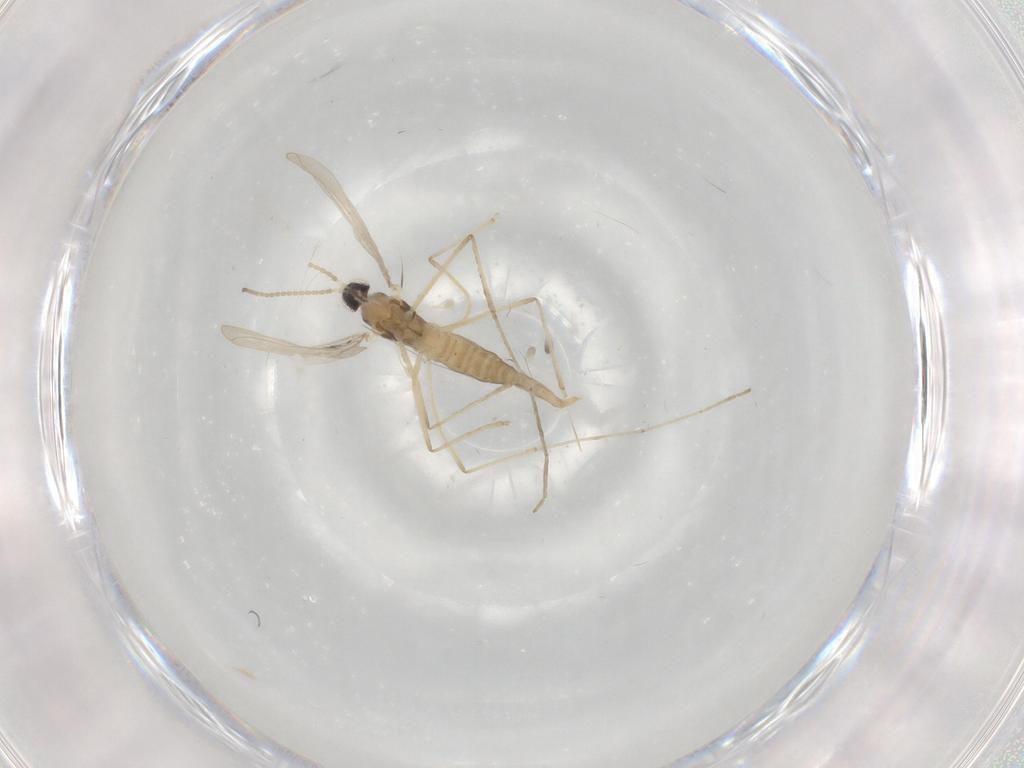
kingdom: Animalia
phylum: Arthropoda
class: Insecta
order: Diptera
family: Cecidomyiidae
